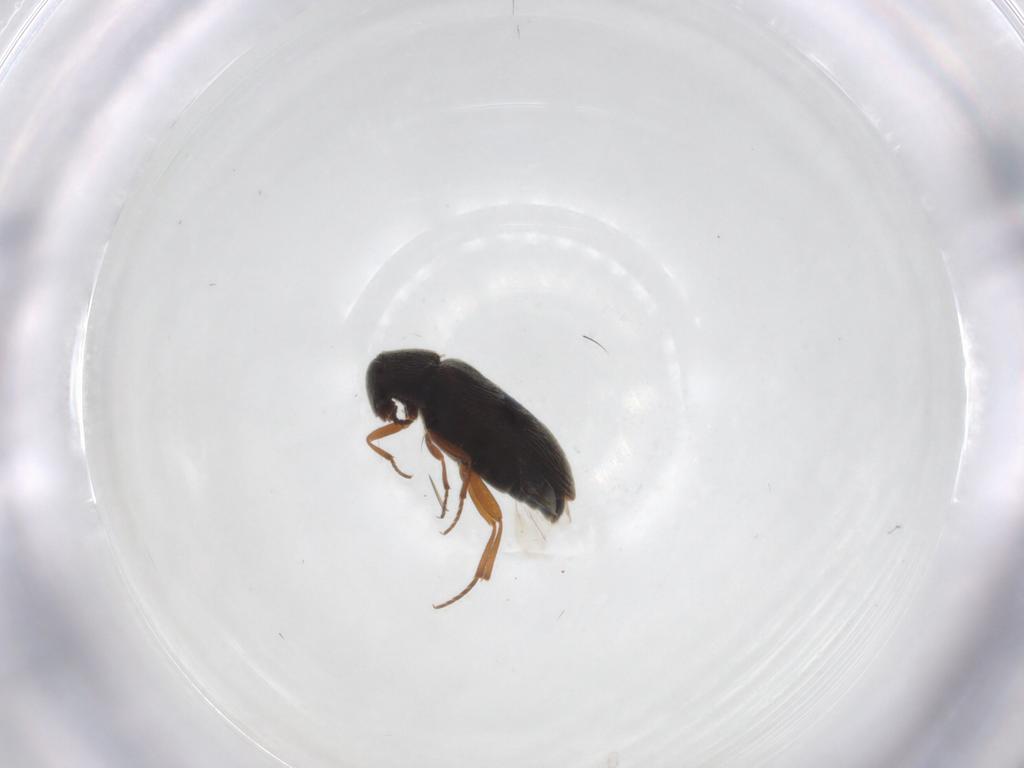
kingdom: Animalia
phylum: Arthropoda
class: Insecta
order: Coleoptera
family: Rhadalidae
